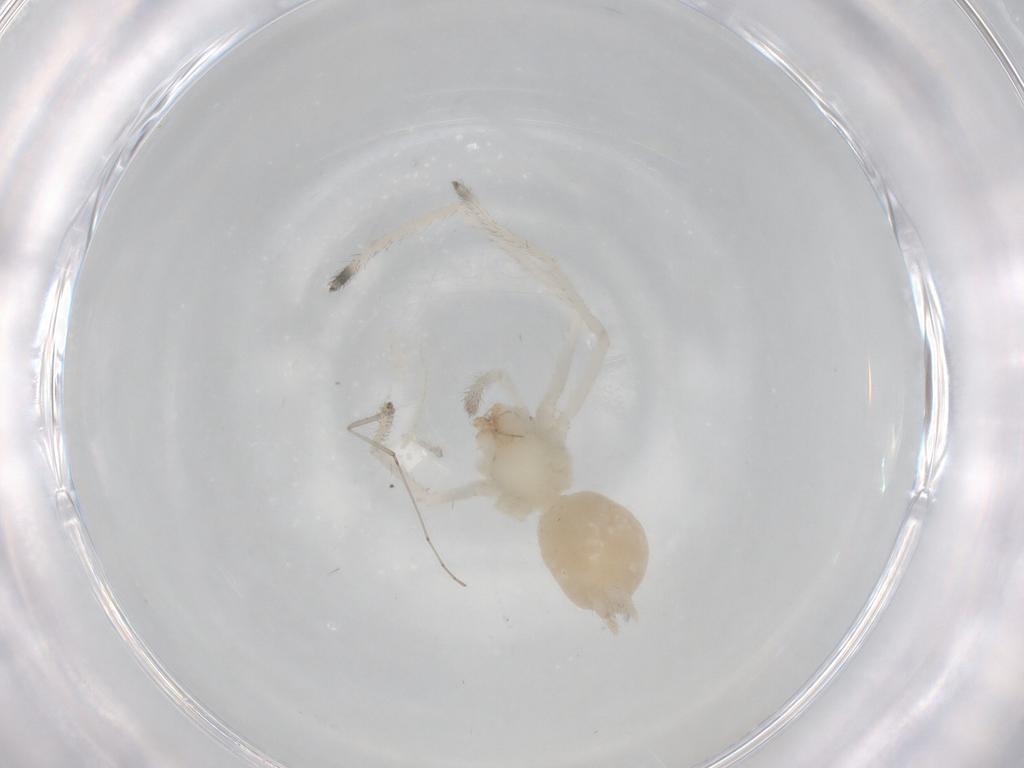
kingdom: Animalia
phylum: Arthropoda
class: Arachnida
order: Araneae
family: Cheiracanthiidae
